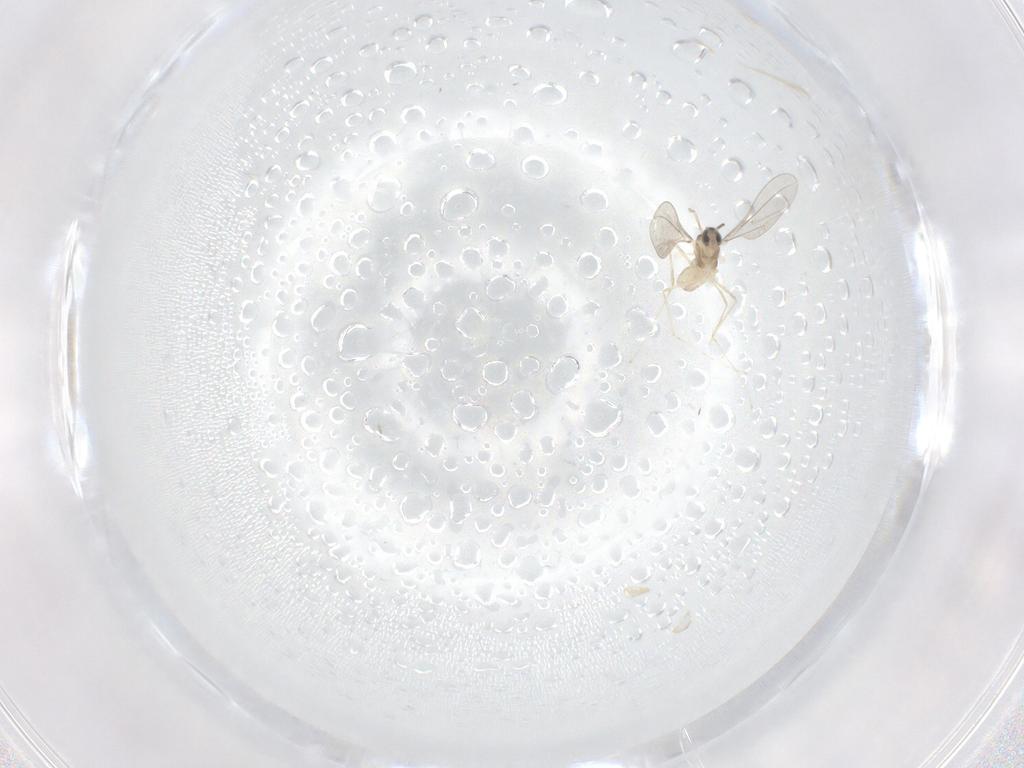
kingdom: Animalia
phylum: Arthropoda
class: Insecta
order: Diptera
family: Cecidomyiidae
